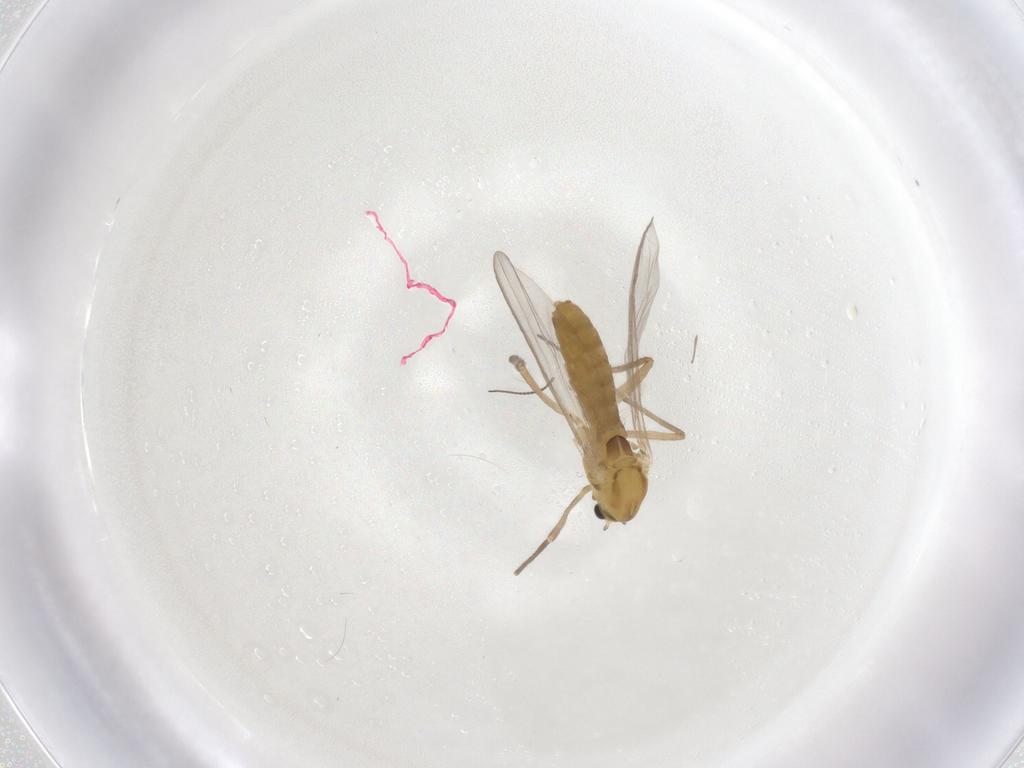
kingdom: Animalia
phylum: Arthropoda
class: Insecta
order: Diptera
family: Chironomidae
